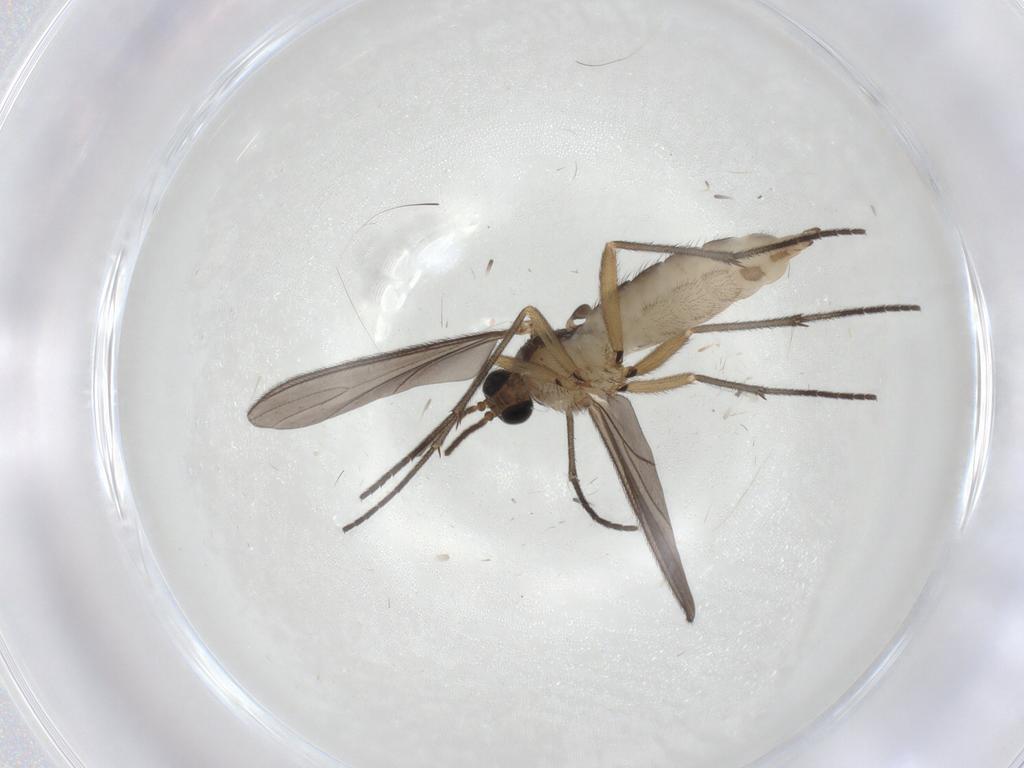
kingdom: Animalia
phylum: Arthropoda
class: Insecta
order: Diptera
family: Sciaridae
